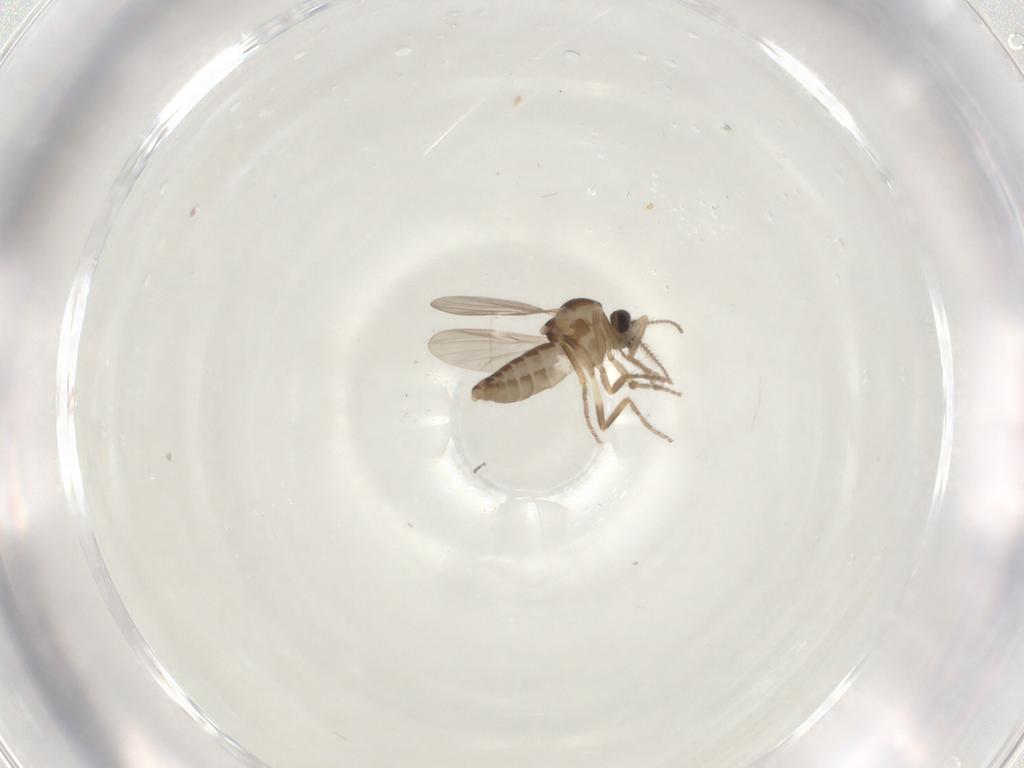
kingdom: Animalia
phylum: Arthropoda
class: Insecta
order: Diptera
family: Ceratopogonidae
